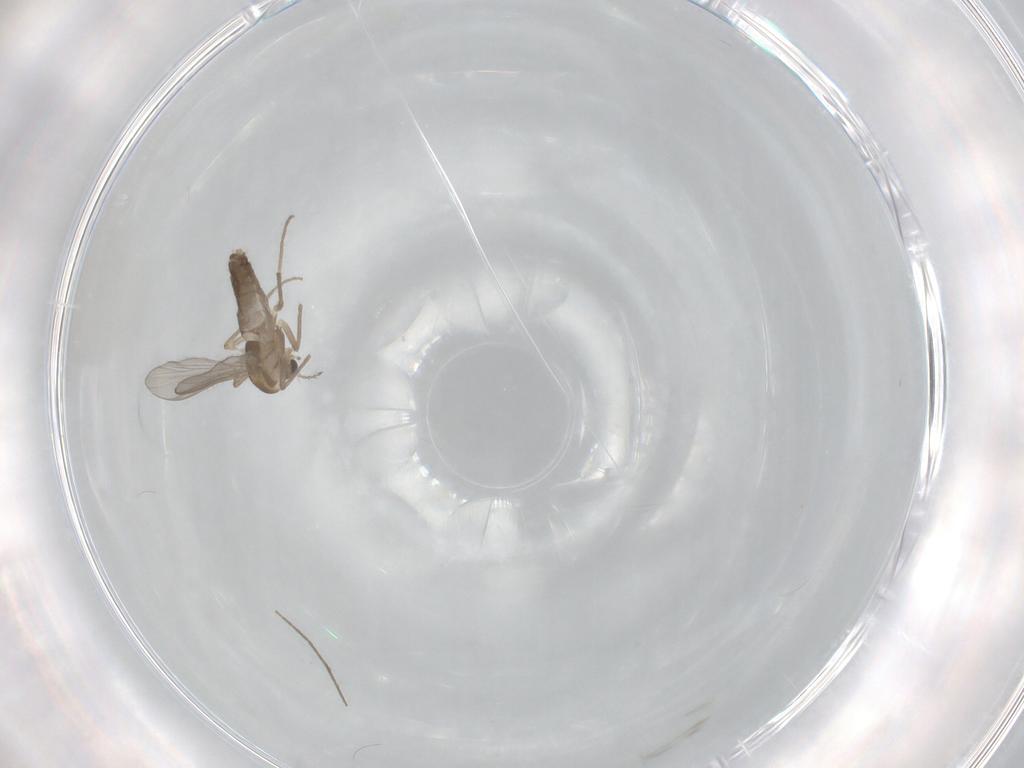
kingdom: Animalia
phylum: Arthropoda
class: Insecta
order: Diptera
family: Chironomidae
